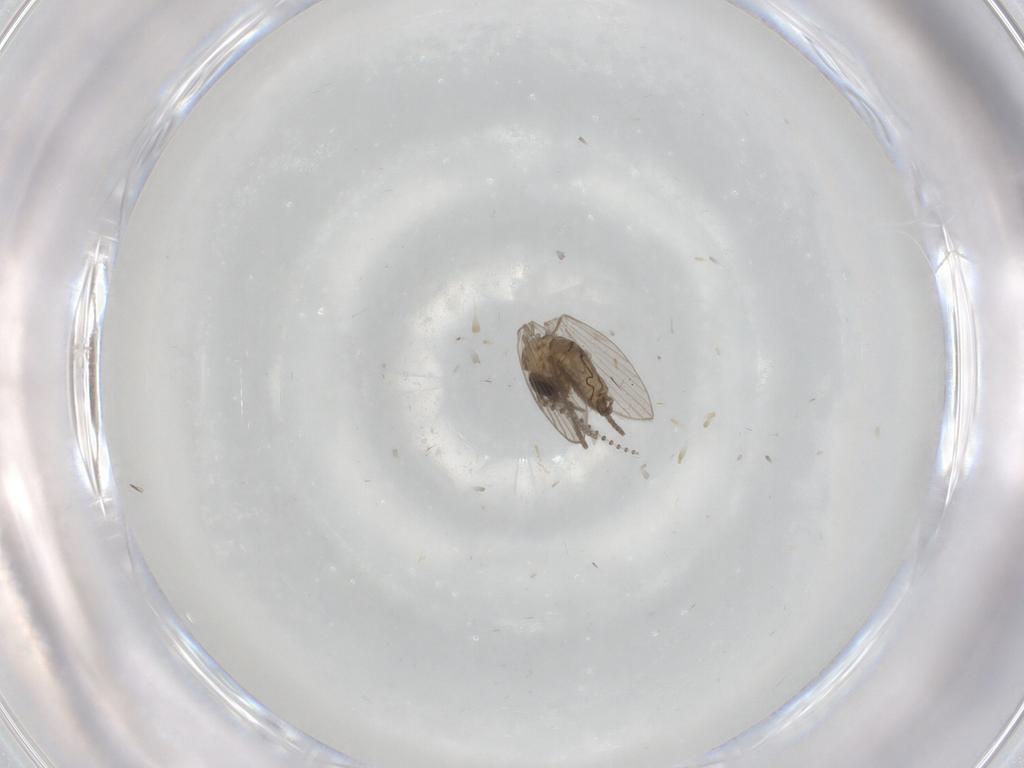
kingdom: Animalia
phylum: Arthropoda
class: Insecta
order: Diptera
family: Psychodidae
